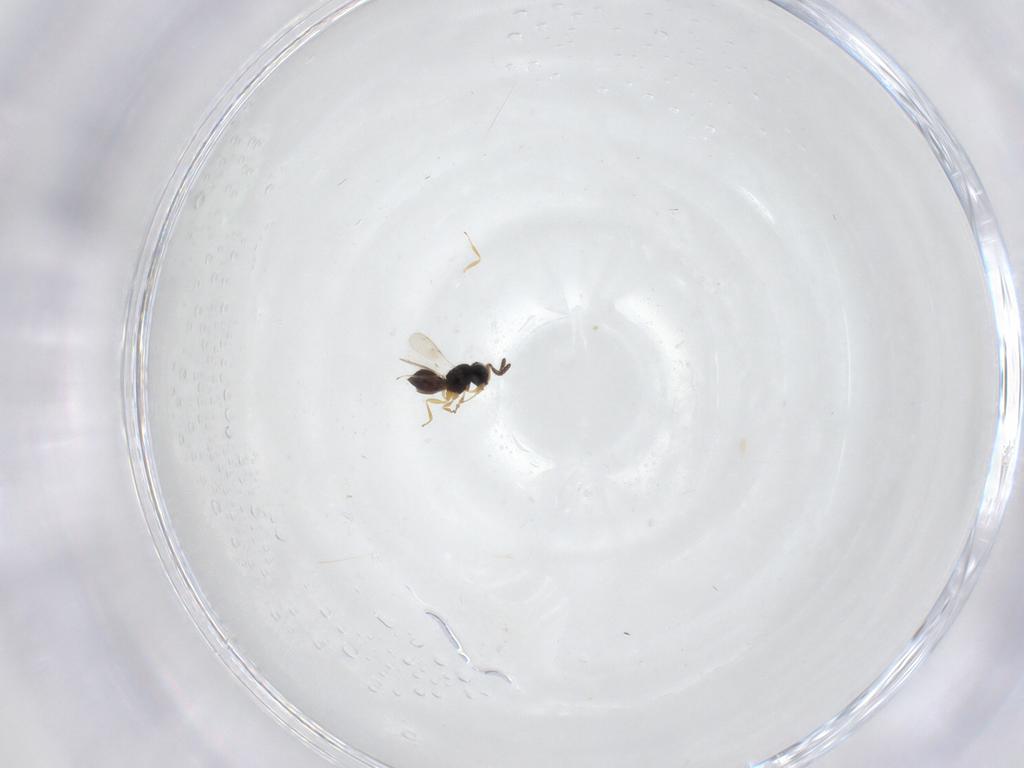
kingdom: Animalia
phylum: Arthropoda
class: Insecta
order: Hymenoptera
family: Scelionidae
